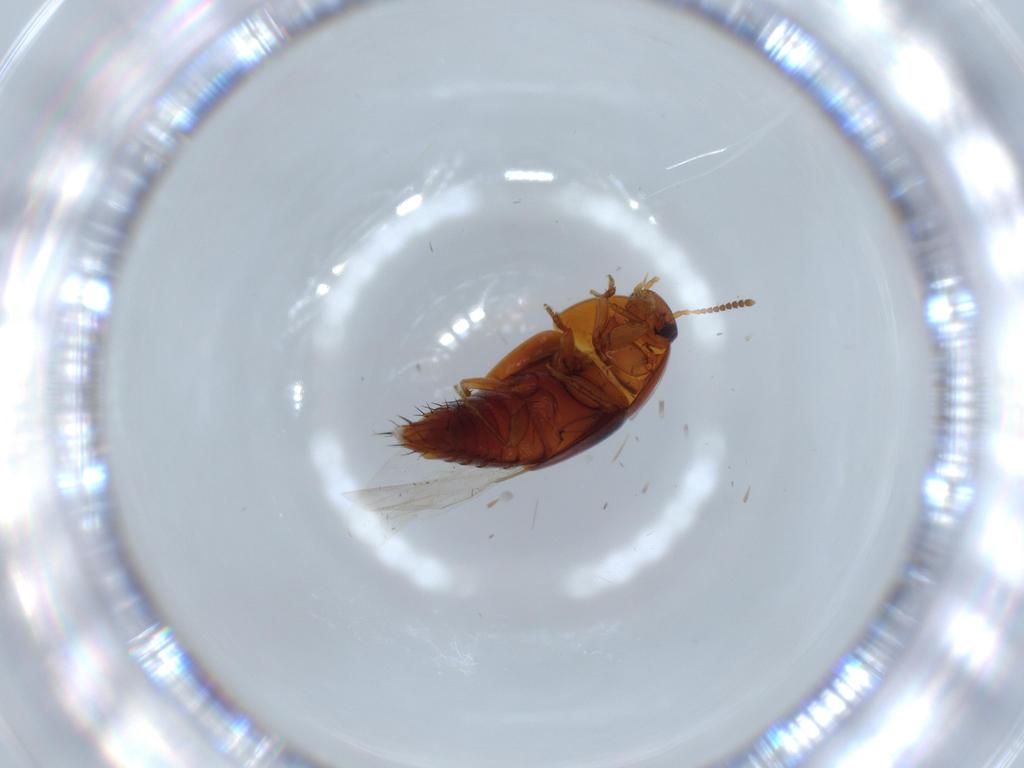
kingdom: Animalia
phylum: Arthropoda
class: Insecta
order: Coleoptera
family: Staphylinidae
